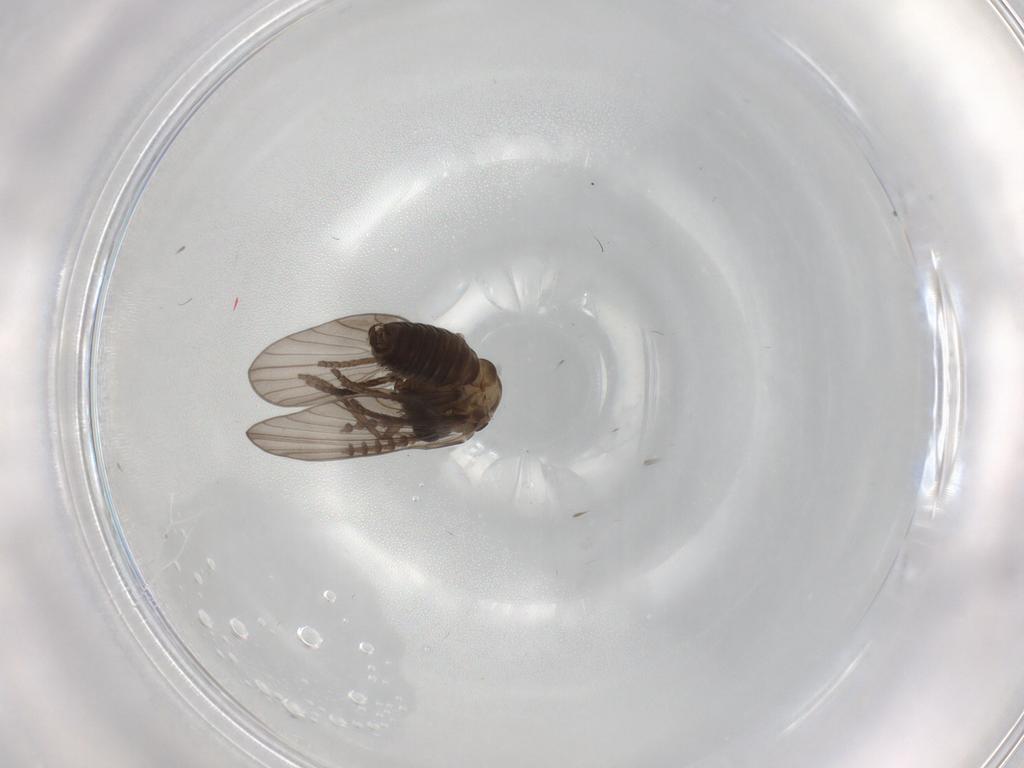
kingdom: Animalia
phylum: Arthropoda
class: Insecta
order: Diptera
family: Psychodidae
